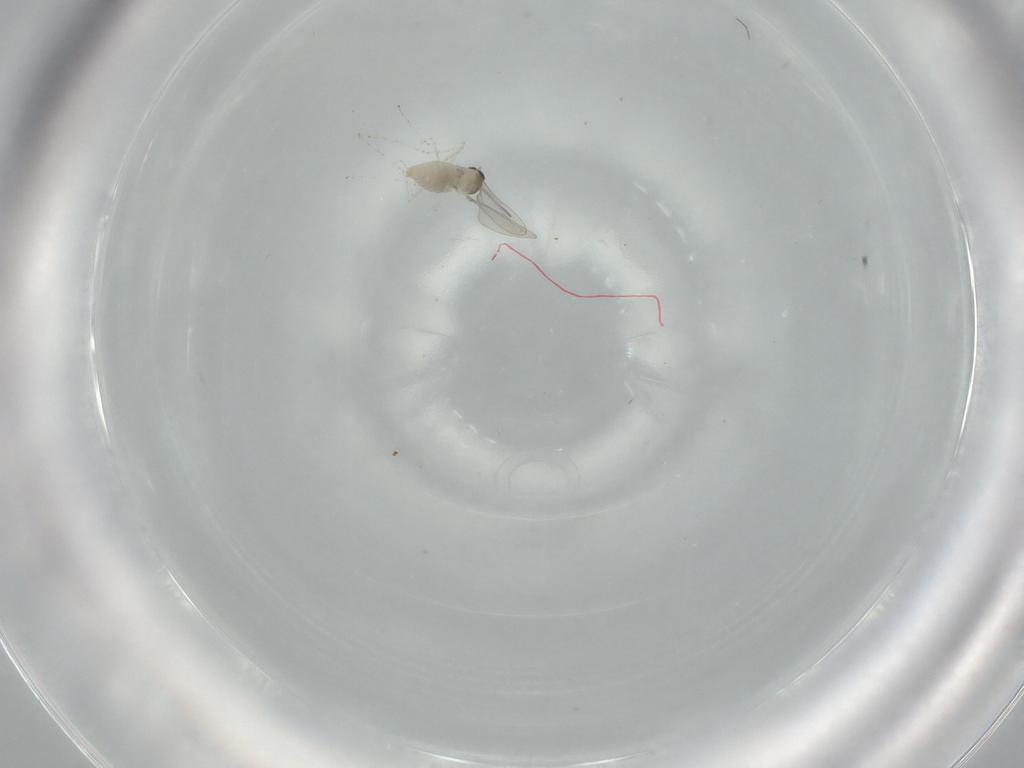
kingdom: Animalia
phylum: Arthropoda
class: Insecta
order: Diptera
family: Cecidomyiidae
